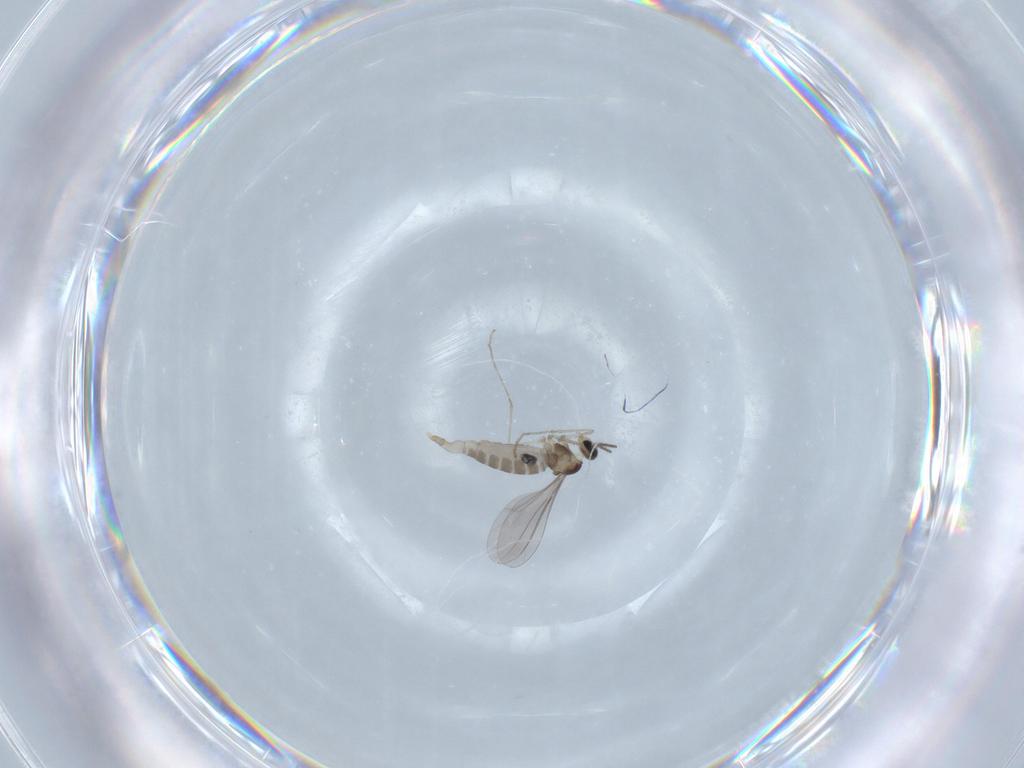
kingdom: Animalia
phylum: Arthropoda
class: Insecta
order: Diptera
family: Chironomidae
